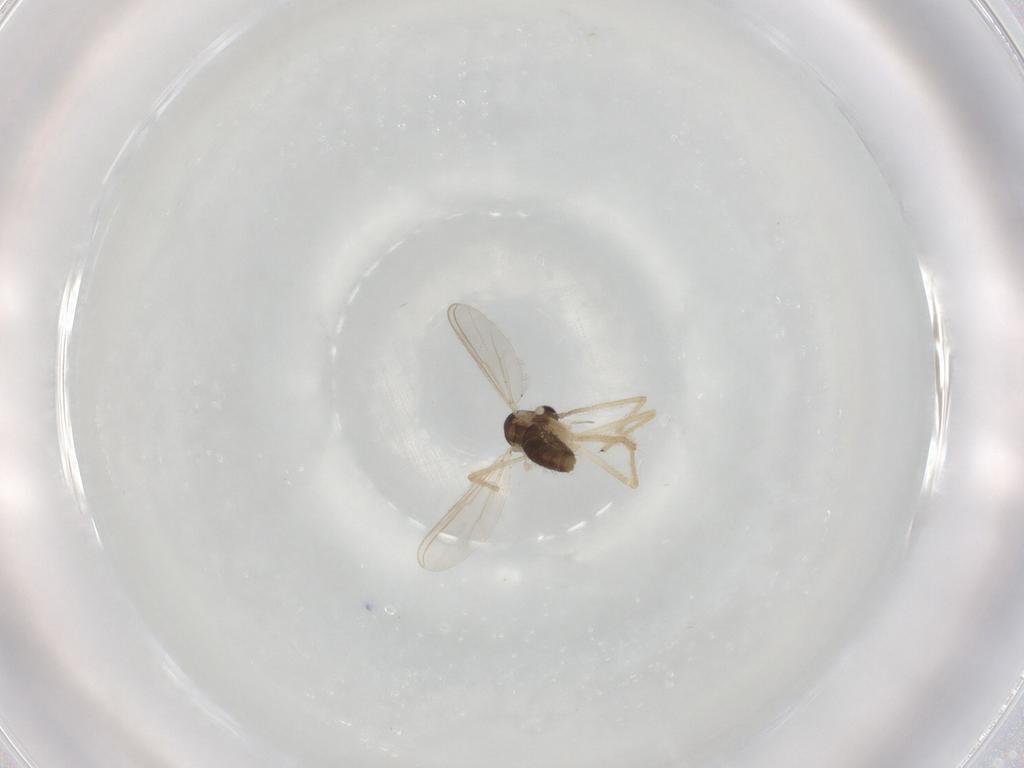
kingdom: Animalia
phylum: Arthropoda
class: Insecta
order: Diptera
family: Chironomidae
